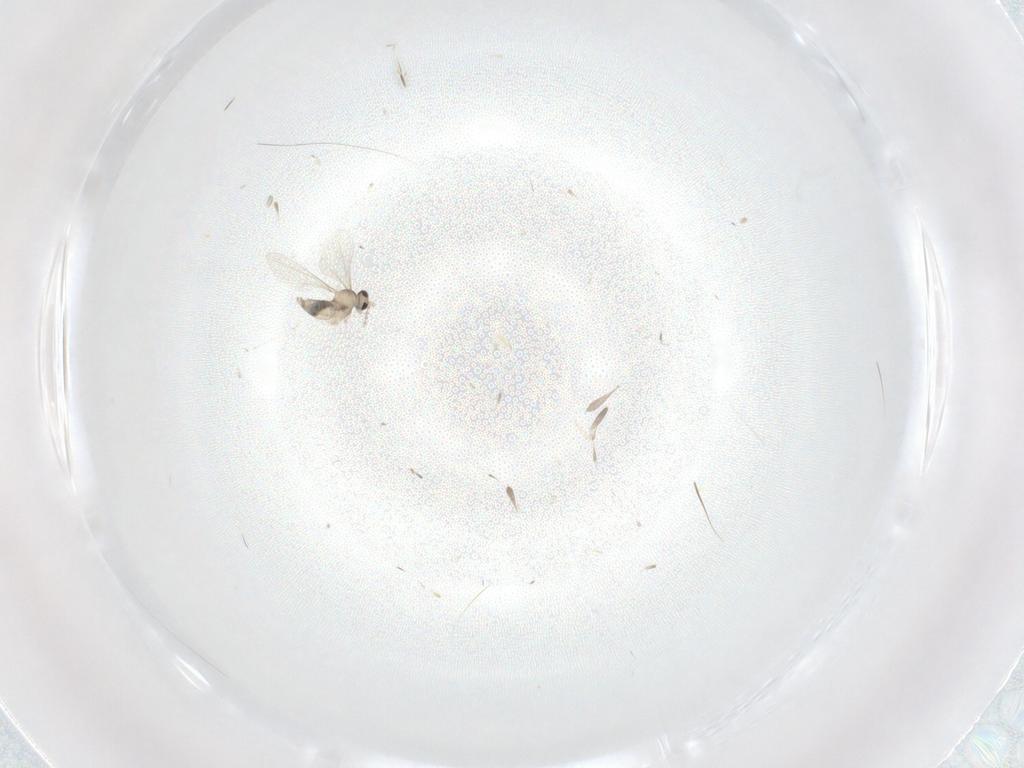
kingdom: Animalia
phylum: Arthropoda
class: Insecta
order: Diptera
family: Cecidomyiidae
